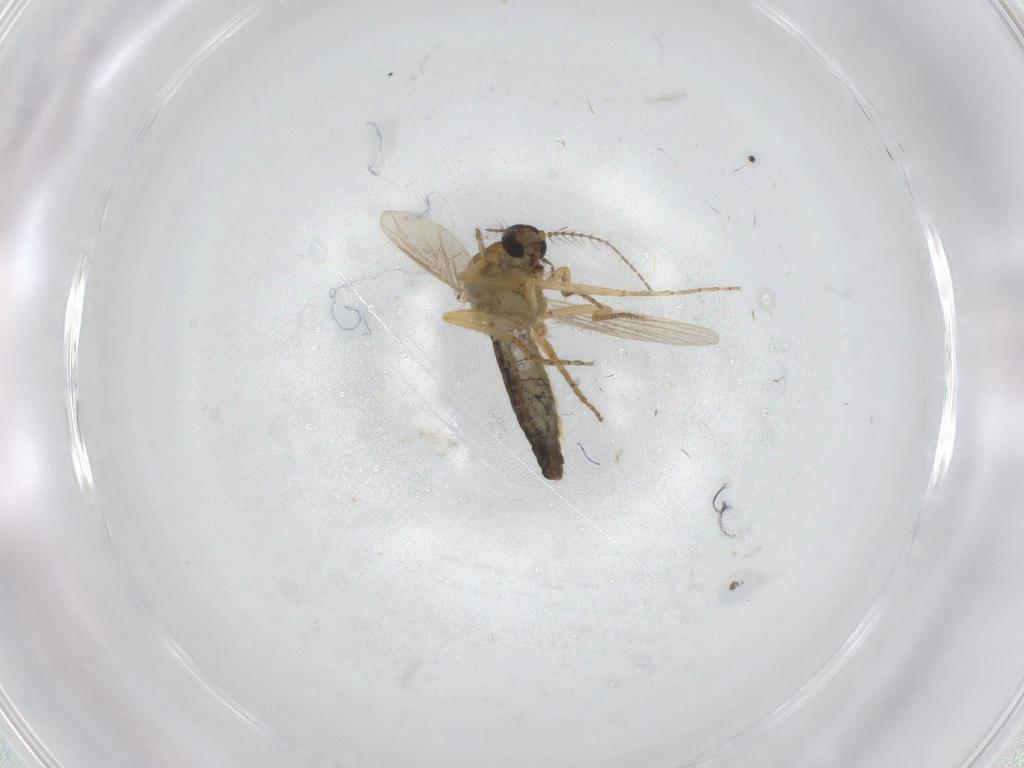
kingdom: Animalia
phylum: Arthropoda
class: Insecta
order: Diptera
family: Ceratopogonidae
